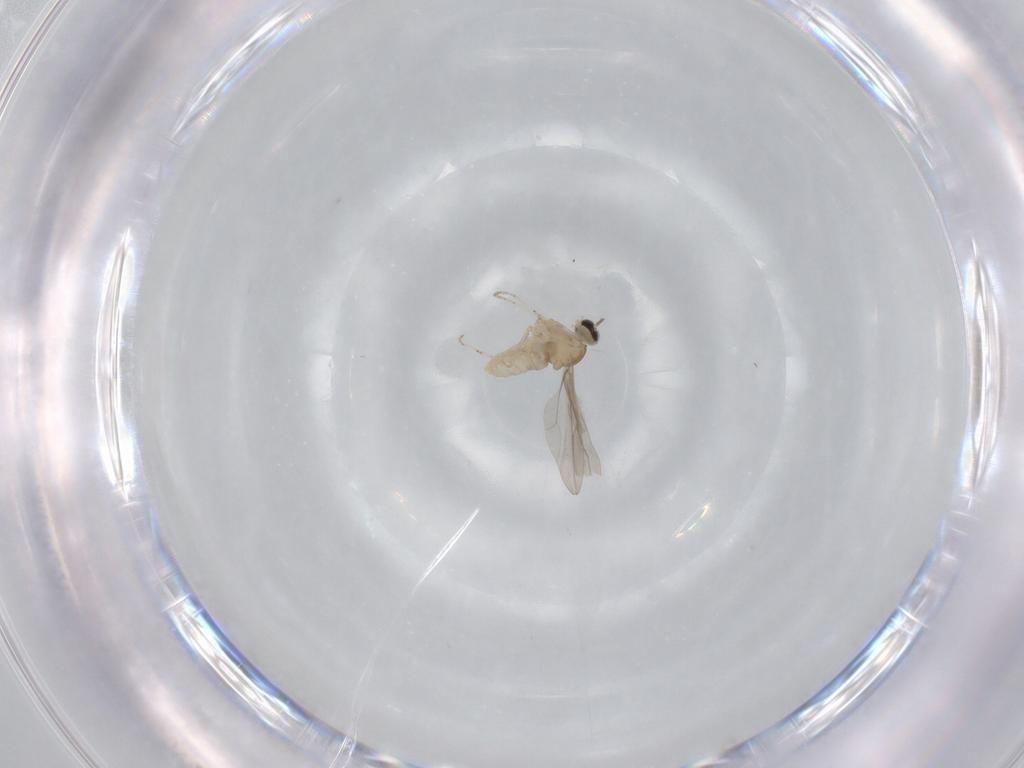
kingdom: Animalia
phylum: Arthropoda
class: Insecta
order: Diptera
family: Cecidomyiidae
